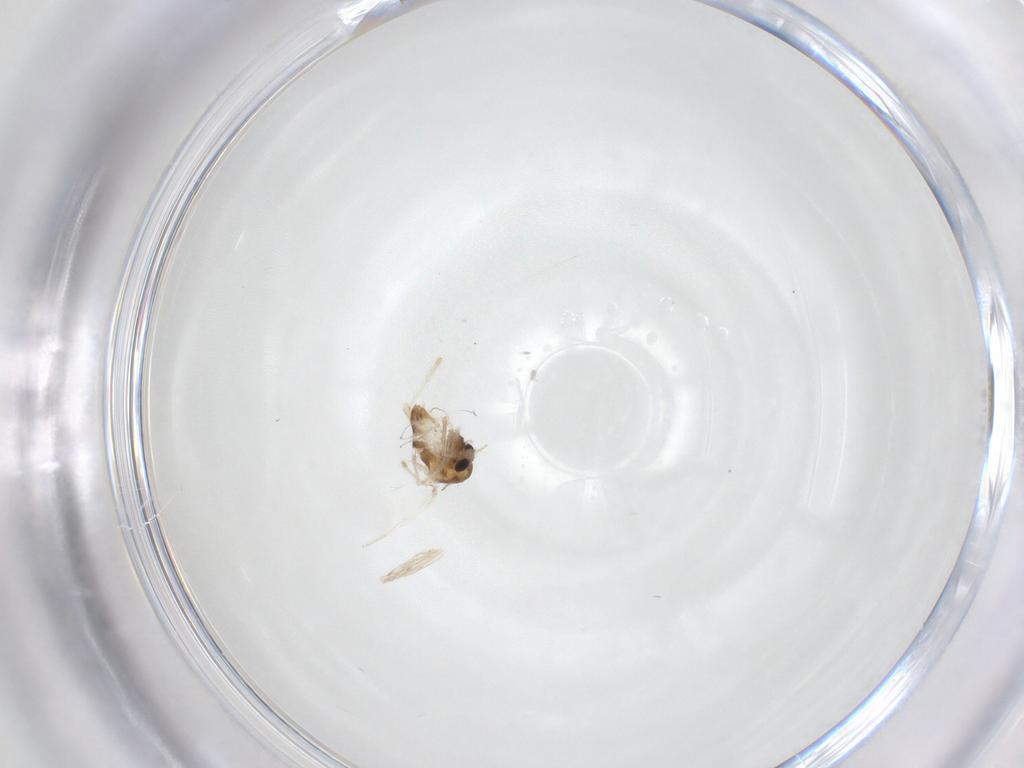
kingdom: Animalia
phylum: Arthropoda
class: Insecta
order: Diptera
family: Chironomidae
